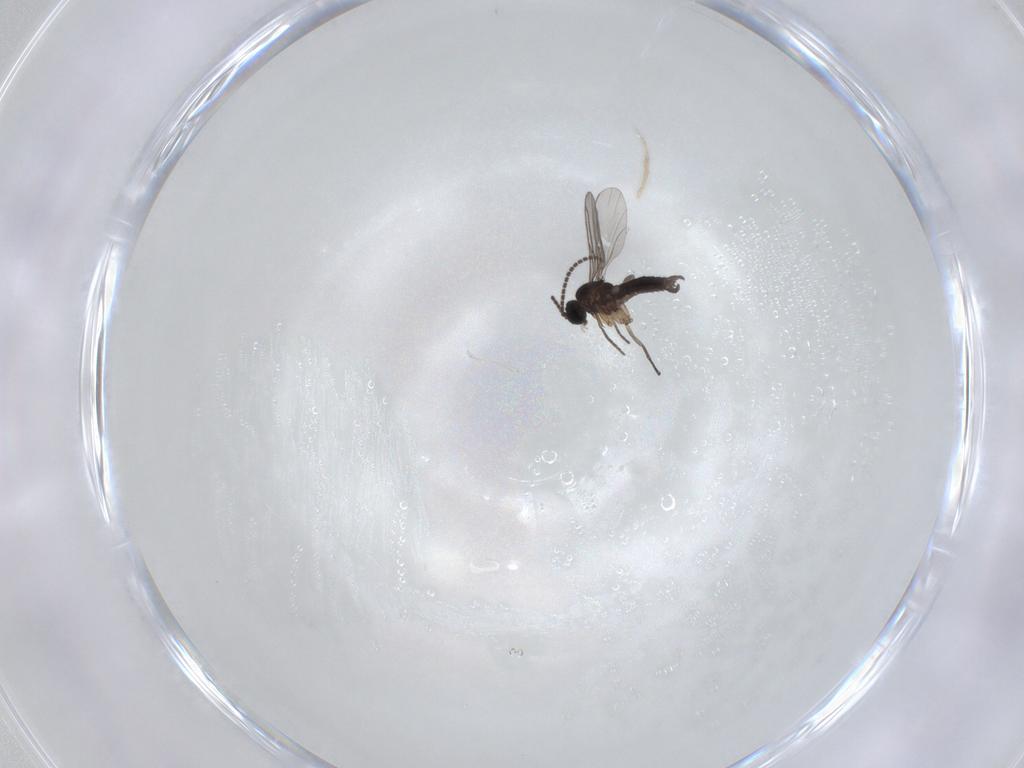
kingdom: Animalia
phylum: Arthropoda
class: Insecta
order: Diptera
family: Sciaridae
